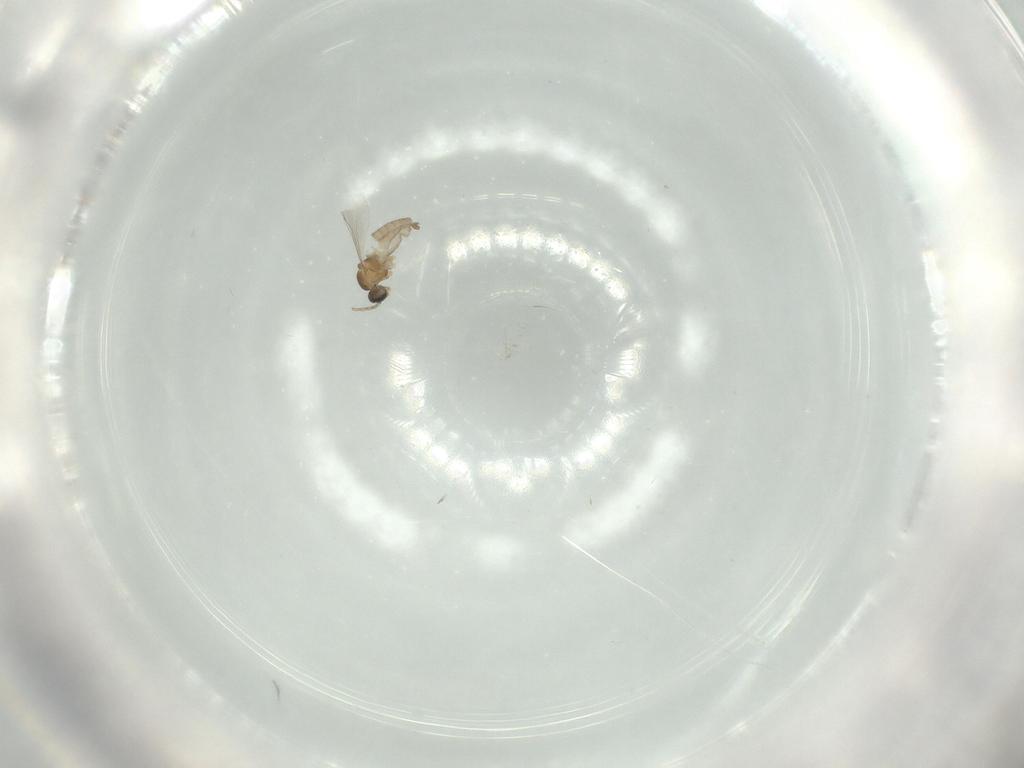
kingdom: Animalia
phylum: Arthropoda
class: Insecta
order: Diptera
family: Cecidomyiidae
